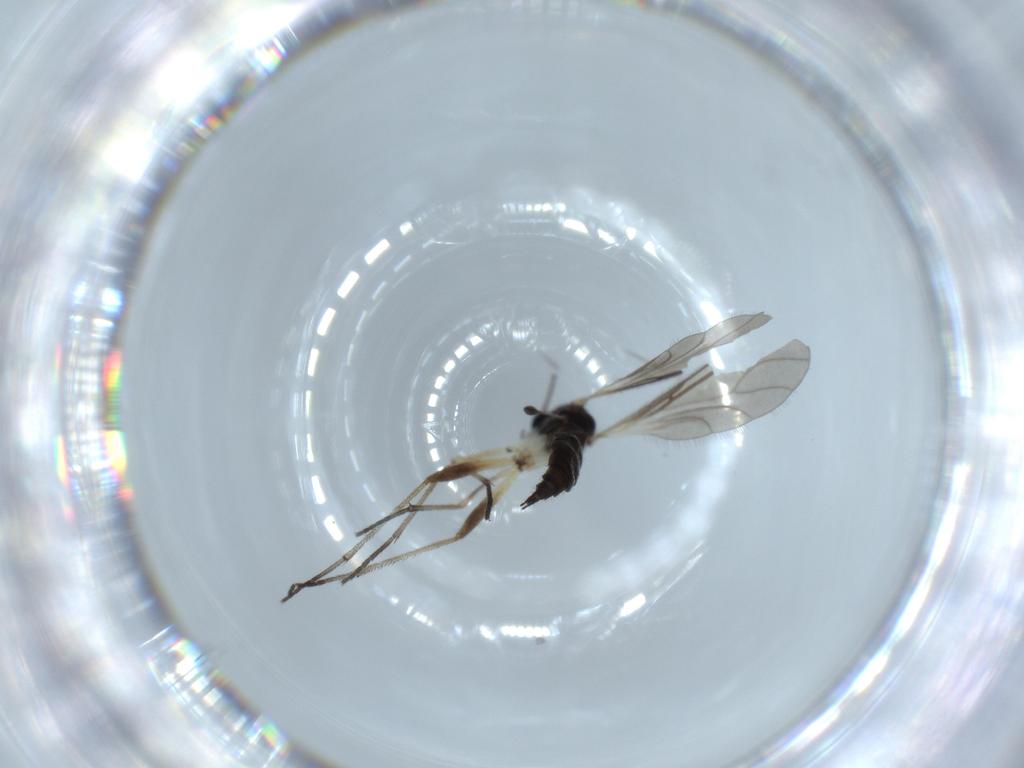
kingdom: Animalia
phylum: Arthropoda
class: Insecta
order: Diptera
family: Sciaridae
